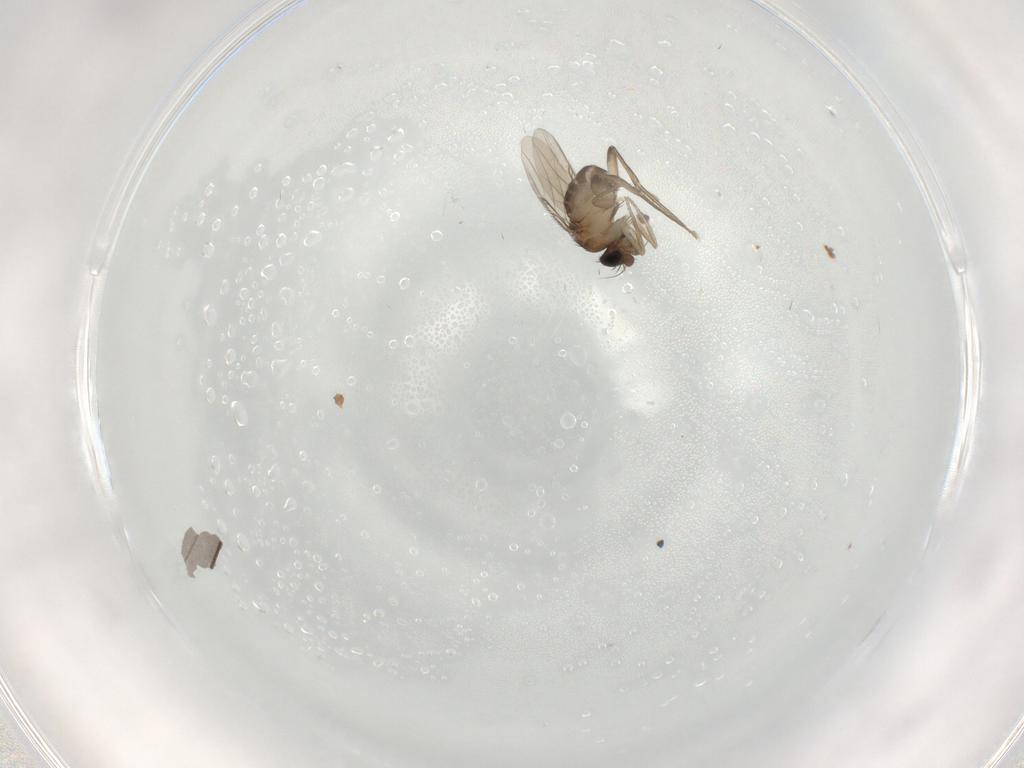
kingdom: Animalia
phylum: Arthropoda
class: Insecta
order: Diptera
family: Phoridae
